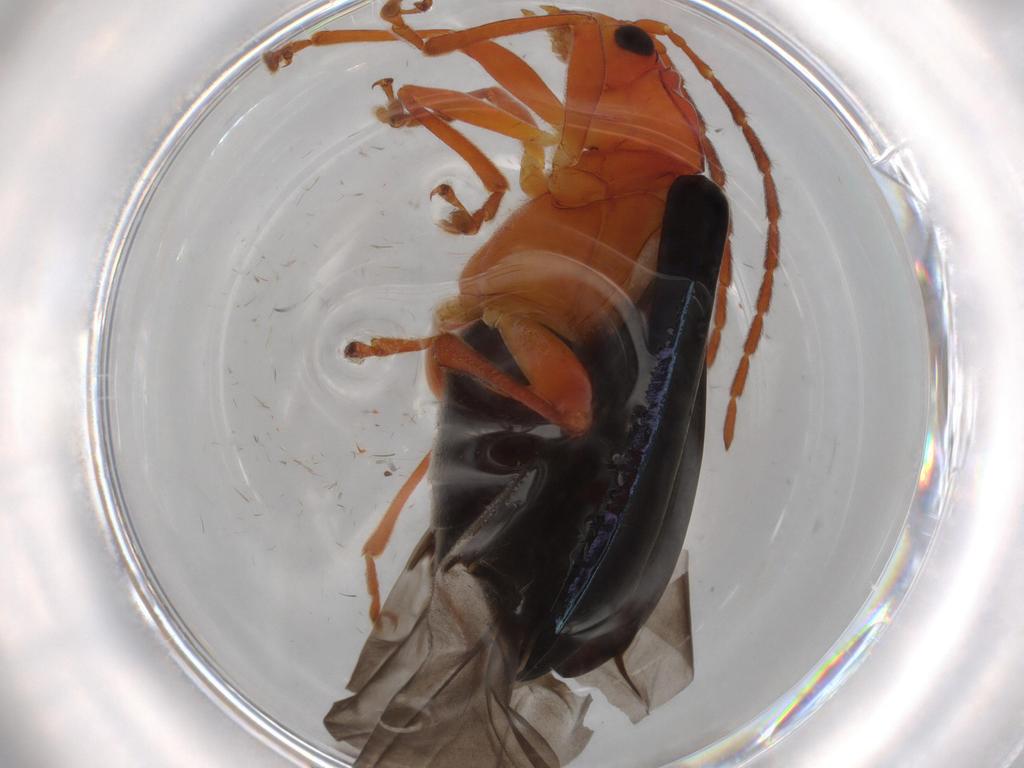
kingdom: Animalia
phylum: Arthropoda
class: Insecta
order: Coleoptera
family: Chrysomelidae
